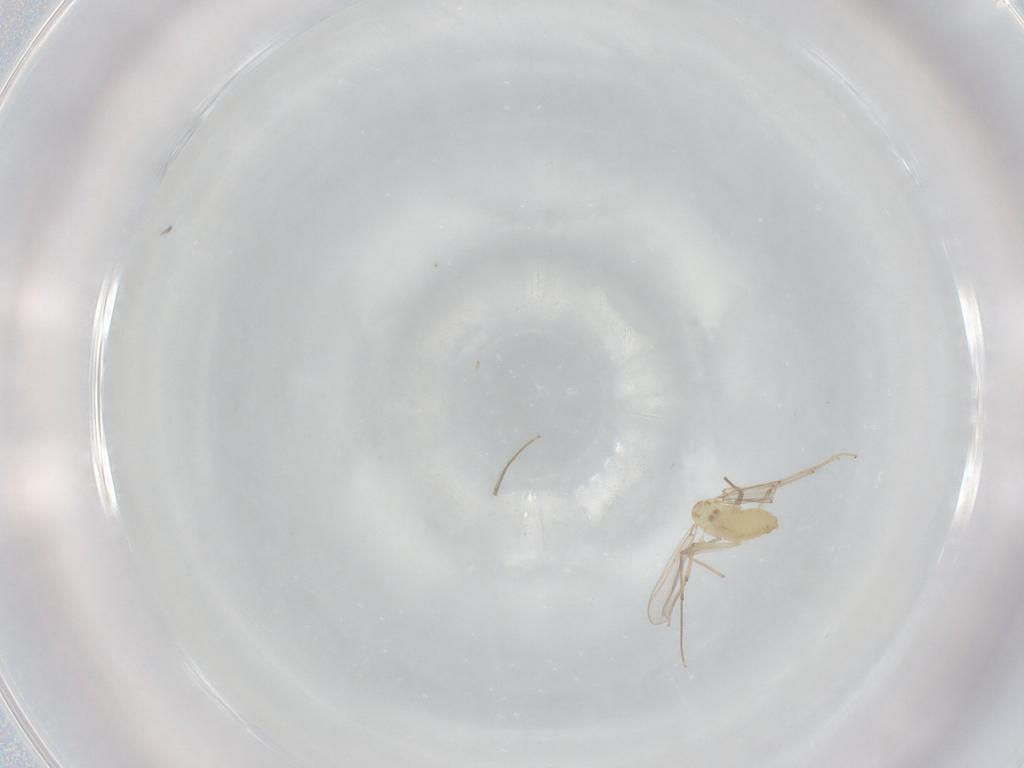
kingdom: Animalia
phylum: Arthropoda
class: Insecta
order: Diptera
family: Chironomidae
